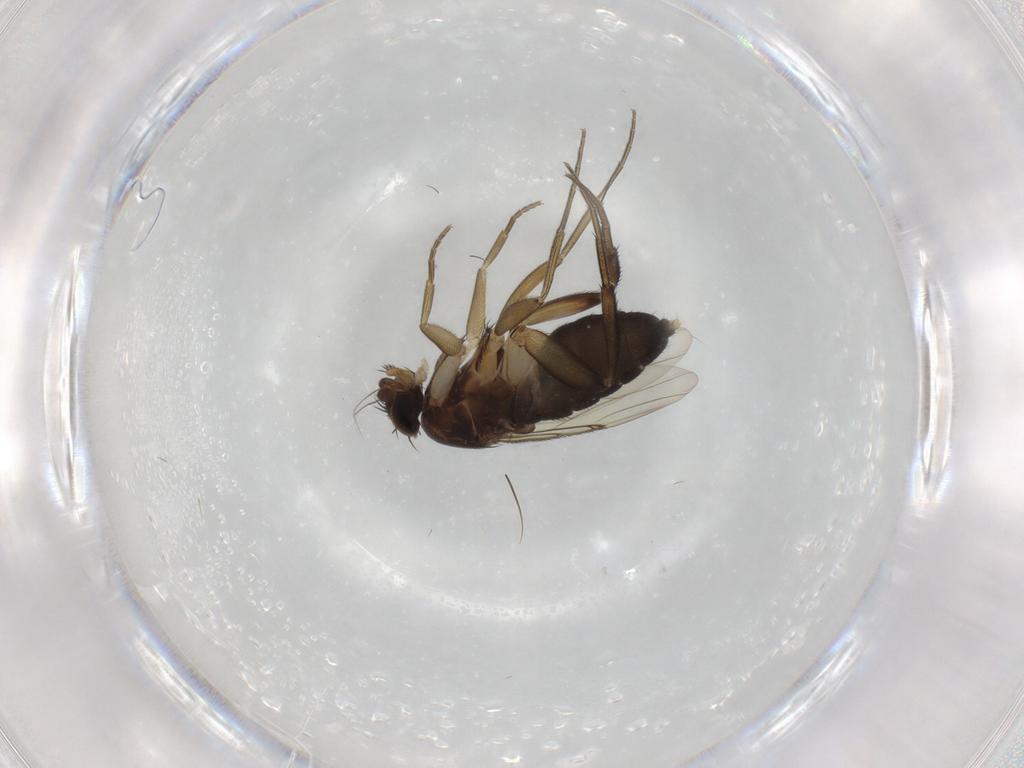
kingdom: Animalia
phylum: Arthropoda
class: Insecta
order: Diptera
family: Phoridae
